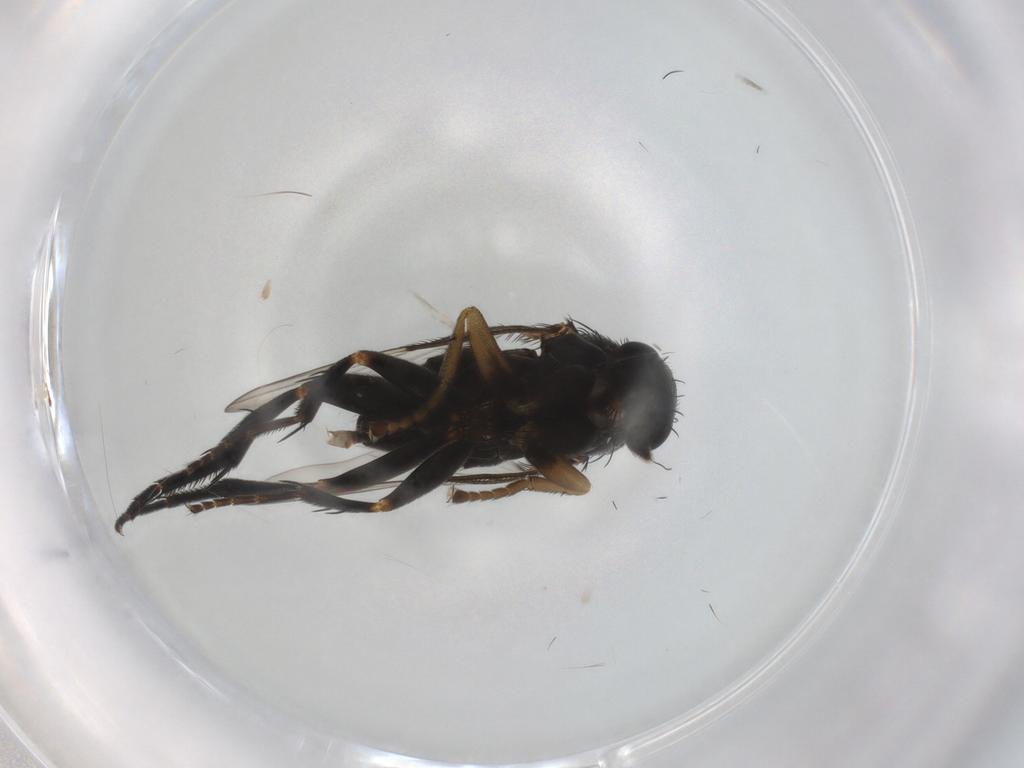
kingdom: Animalia
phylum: Arthropoda
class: Insecta
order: Diptera
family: Phoridae
